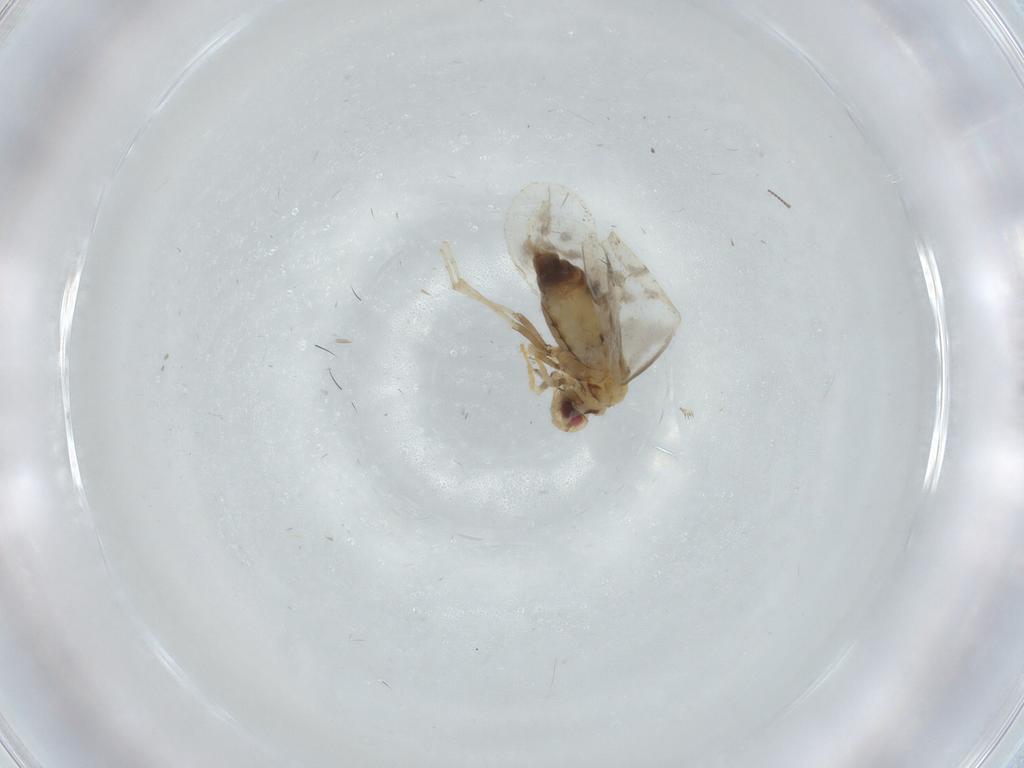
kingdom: Animalia
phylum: Arthropoda
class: Insecta
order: Hemiptera
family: Aleyrodidae
